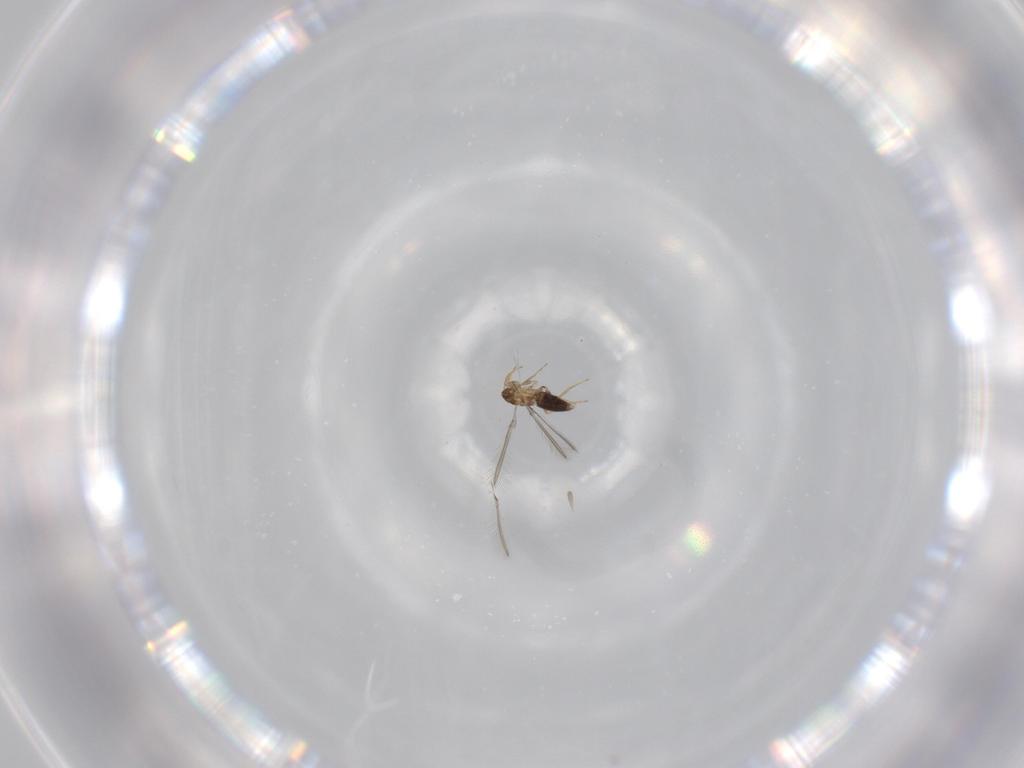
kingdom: Animalia
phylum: Arthropoda
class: Insecta
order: Hymenoptera
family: Mymaridae
